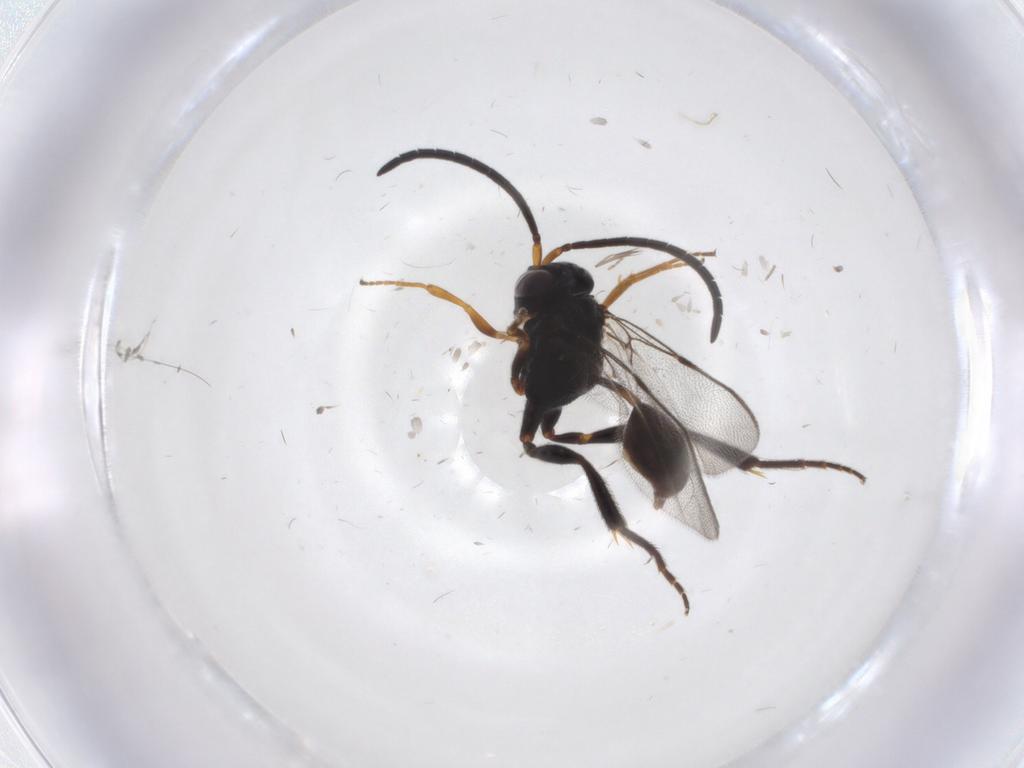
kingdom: Animalia
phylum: Arthropoda
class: Insecta
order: Hymenoptera
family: Evaniidae
